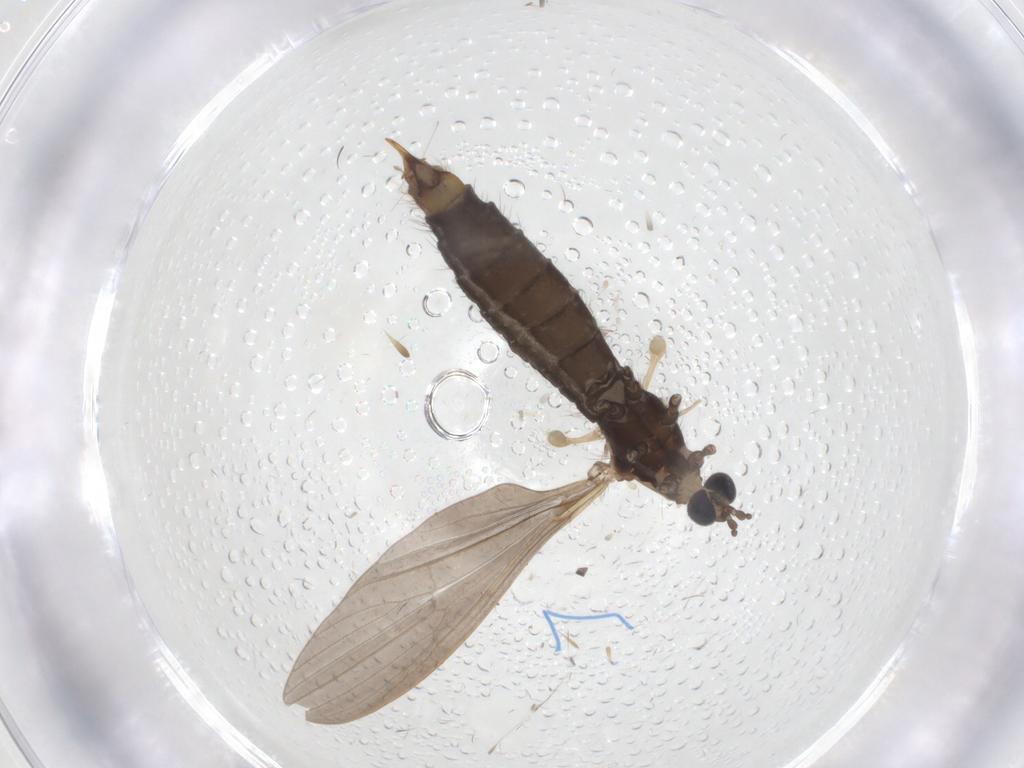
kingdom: Animalia
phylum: Arthropoda
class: Insecta
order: Diptera
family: Limoniidae
